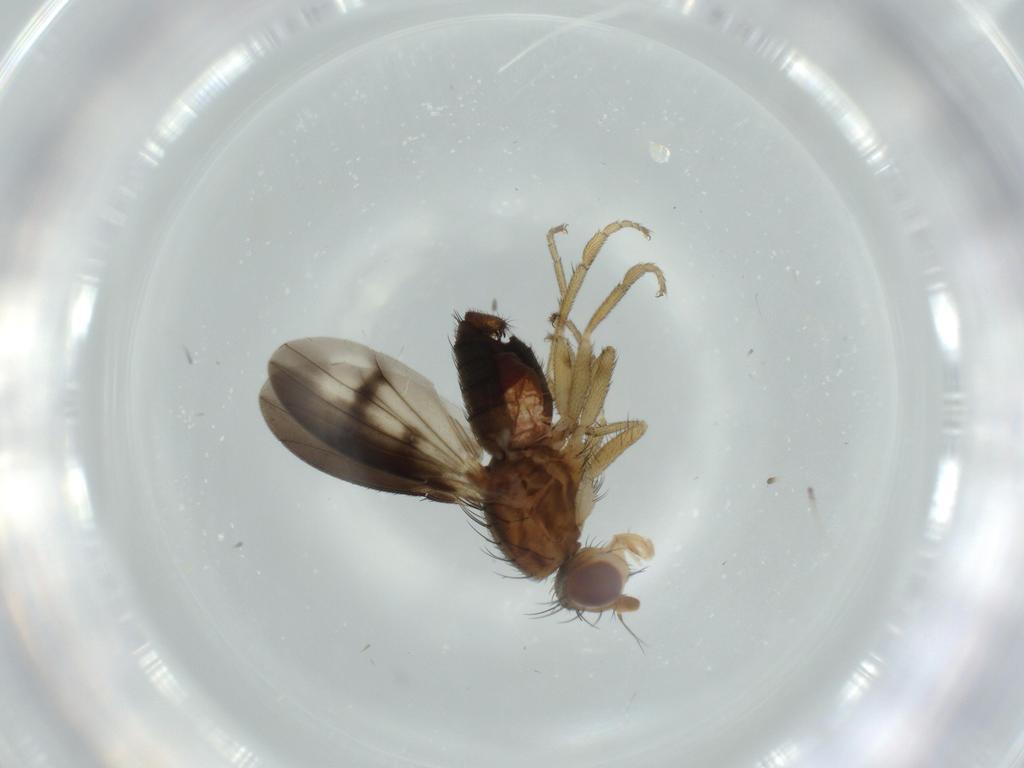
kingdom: Animalia
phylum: Arthropoda
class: Insecta
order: Diptera
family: Heleomyzidae
